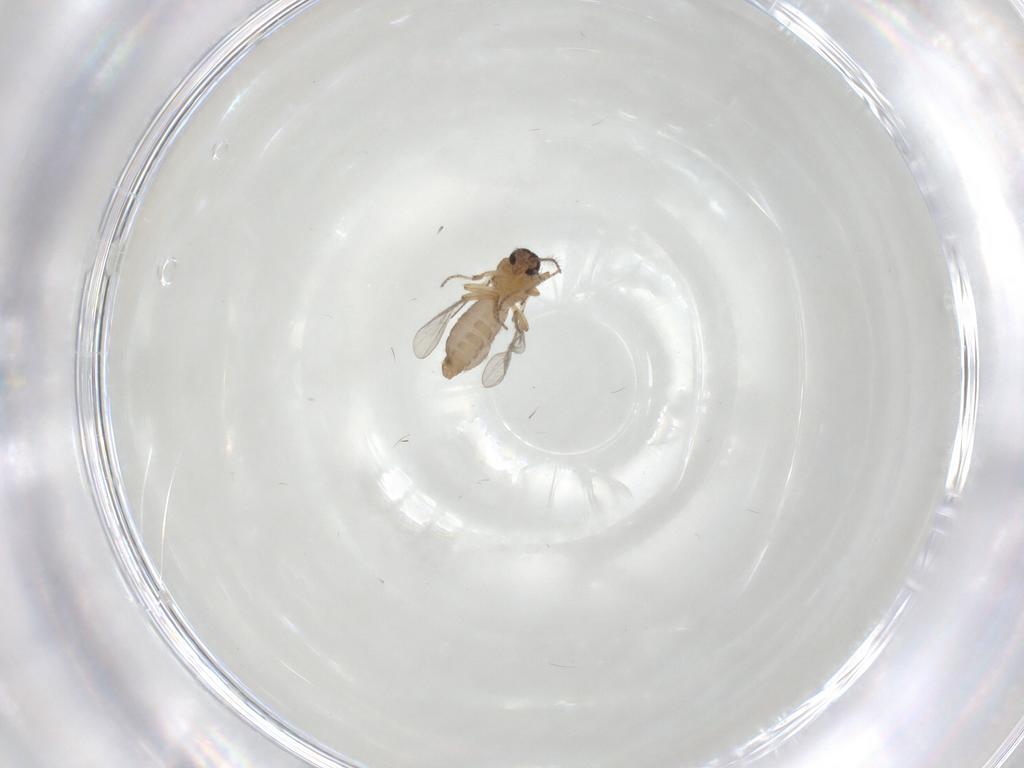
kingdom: Animalia
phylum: Arthropoda
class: Insecta
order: Diptera
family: Ceratopogonidae
